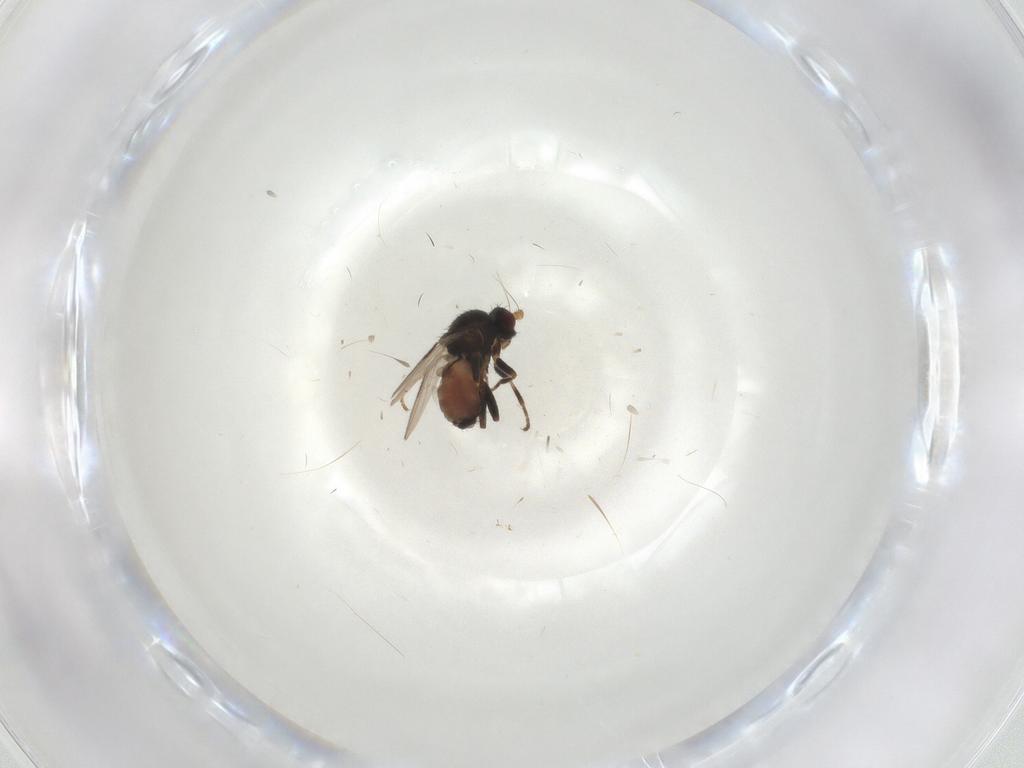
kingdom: Animalia
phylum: Arthropoda
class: Insecta
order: Diptera
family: Sphaeroceridae
